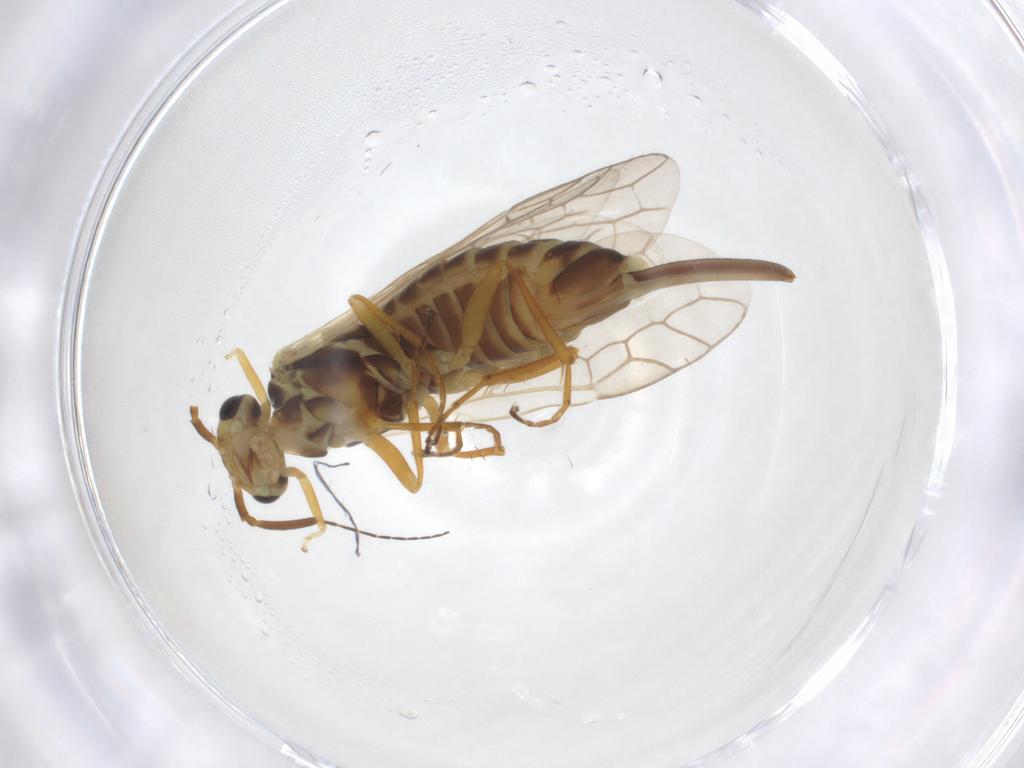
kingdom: Animalia
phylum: Arthropoda
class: Insecta
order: Hymenoptera
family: Xyelidae
